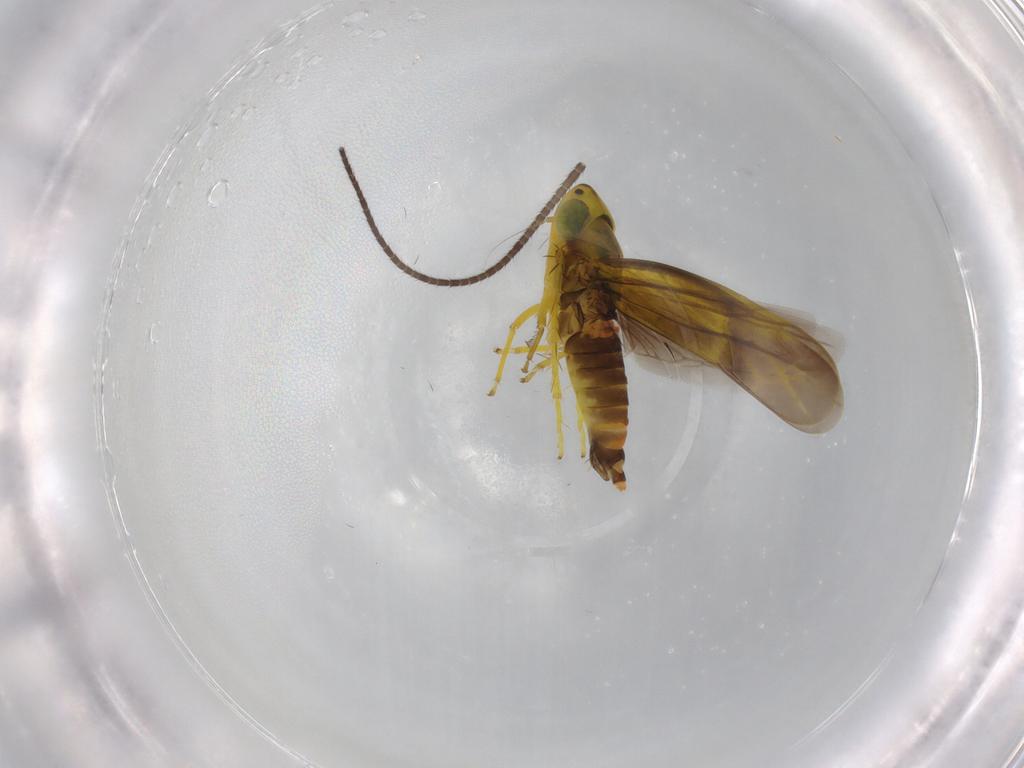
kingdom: Animalia
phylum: Arthropoda
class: Insecta
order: Hemiptera
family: Cicadellidae
